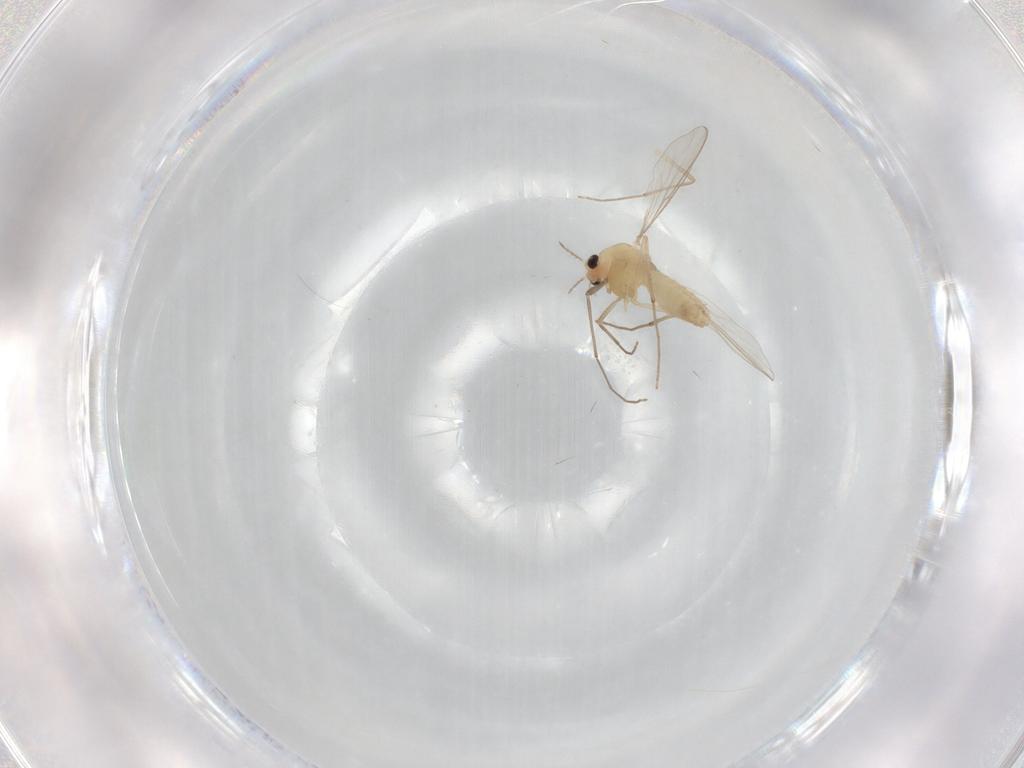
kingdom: Animalia
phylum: Arthropoda
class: Insecta
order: Diptera
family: Chironomidae
